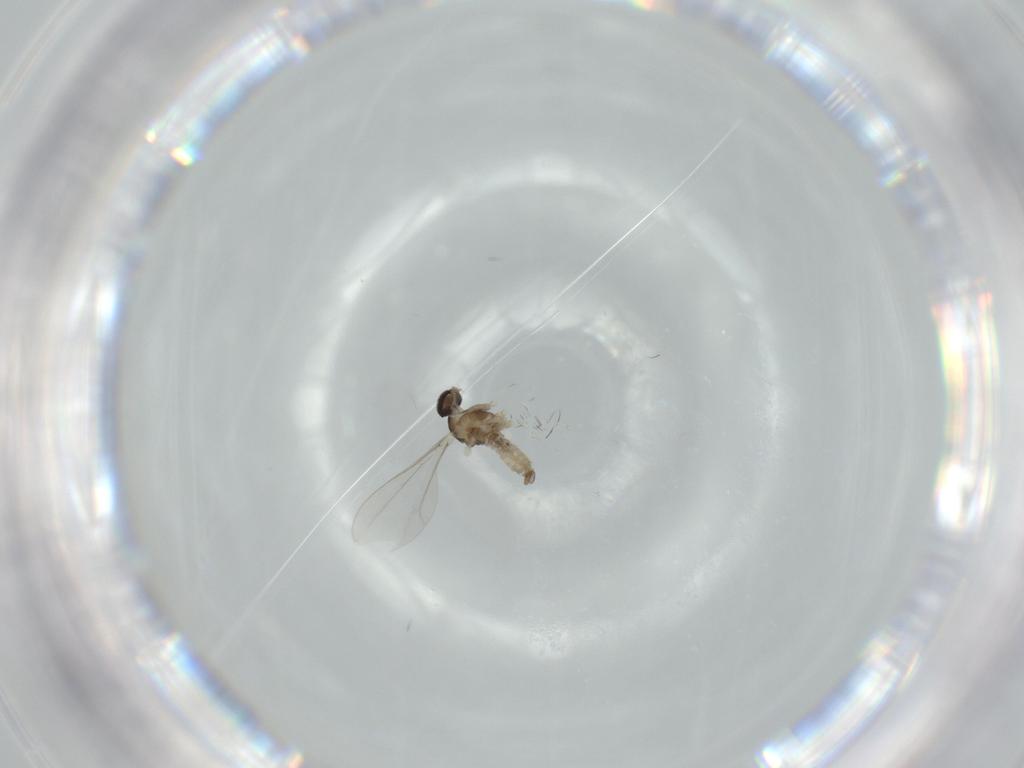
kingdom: Animalia
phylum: Arthropoda
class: Insecta
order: Diptera
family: Cecidomyiidae
